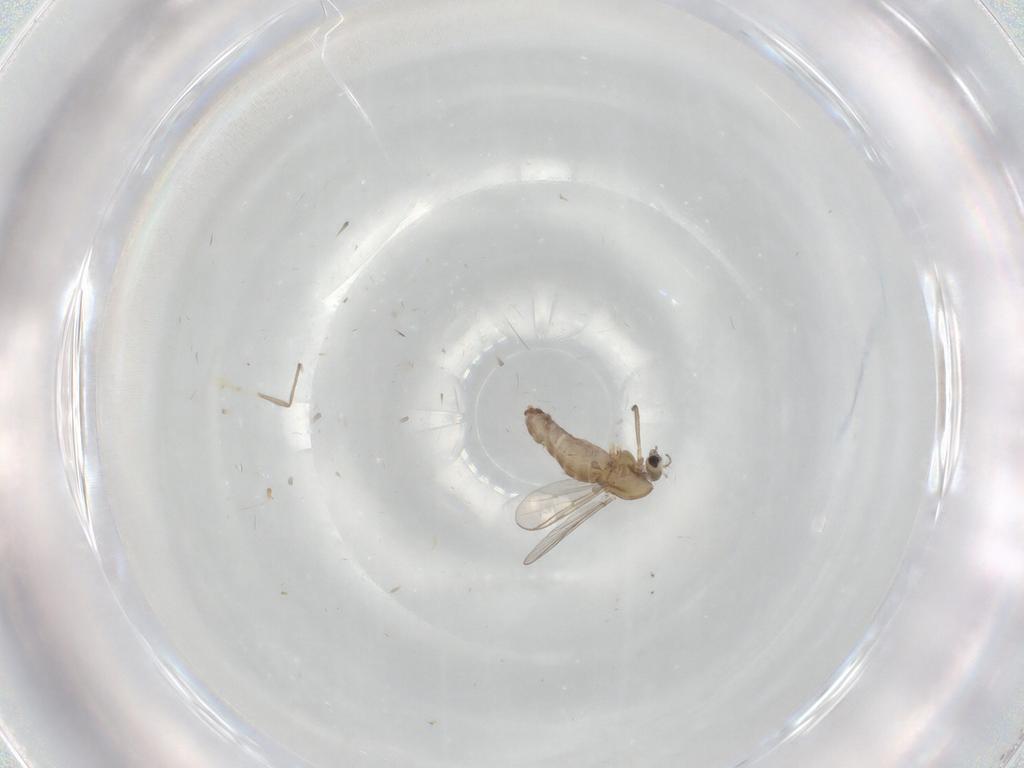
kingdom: Animalia
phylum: Arthropoda
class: Insecta
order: Diptera
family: Chironomidae
